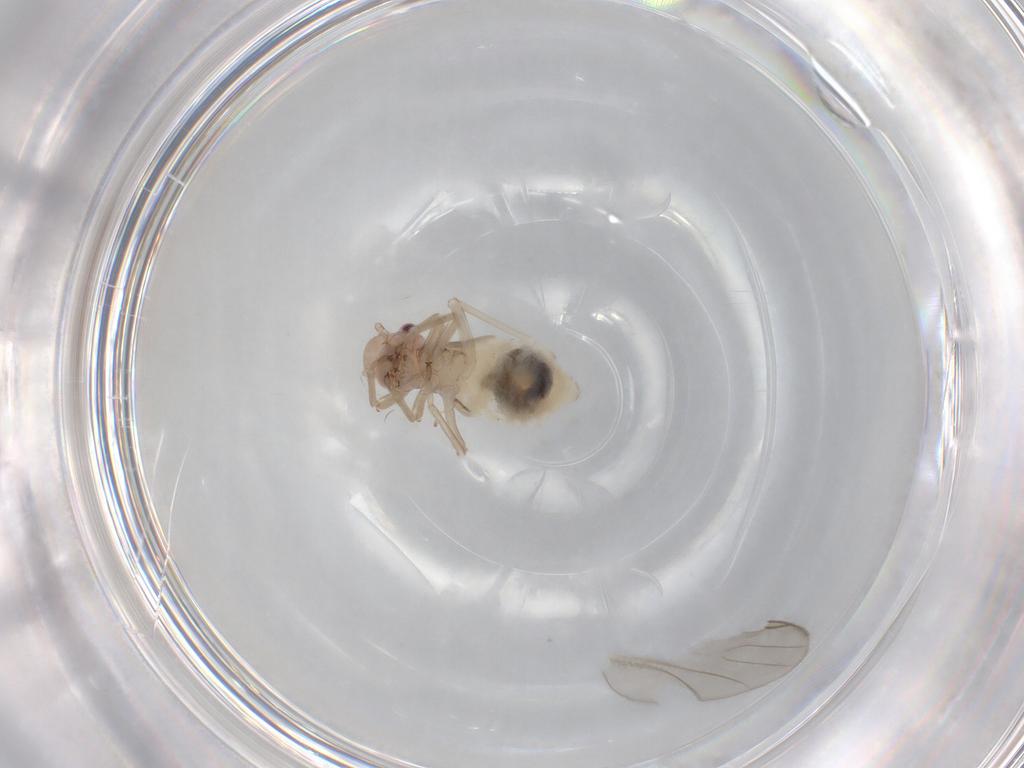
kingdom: Animalia
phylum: Arthropoda
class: Insecta
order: Psocodea
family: Stenopsocidae
